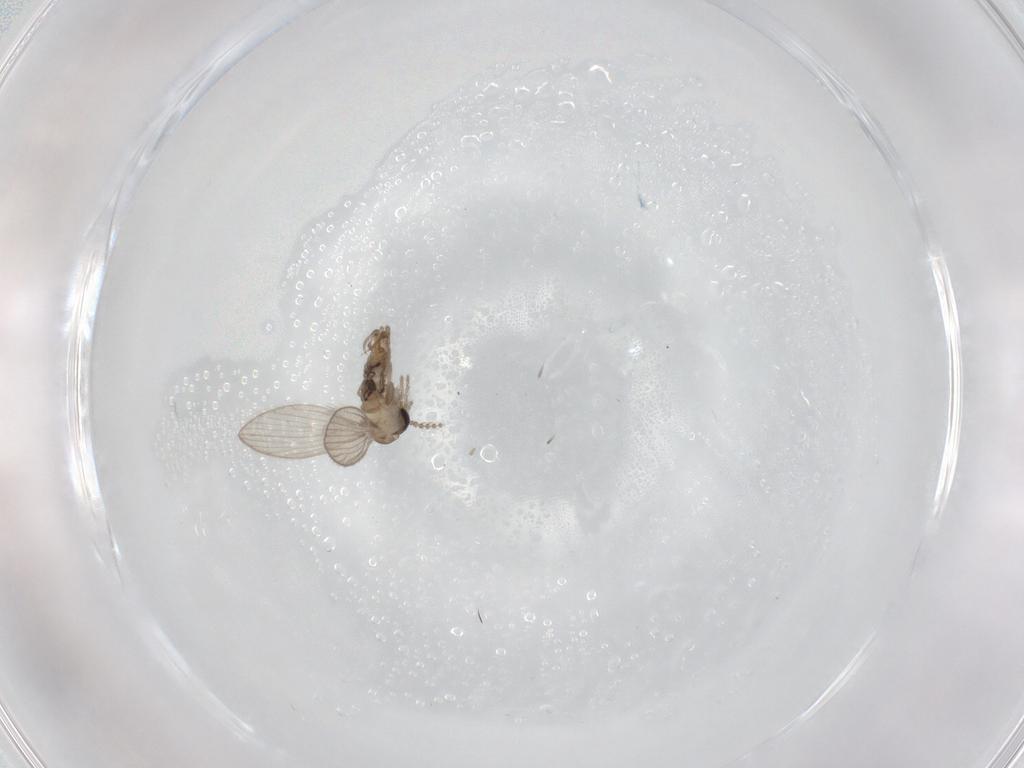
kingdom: Animalia
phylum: Arthropoda
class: Insecta
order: Diptera
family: Psychodidae
